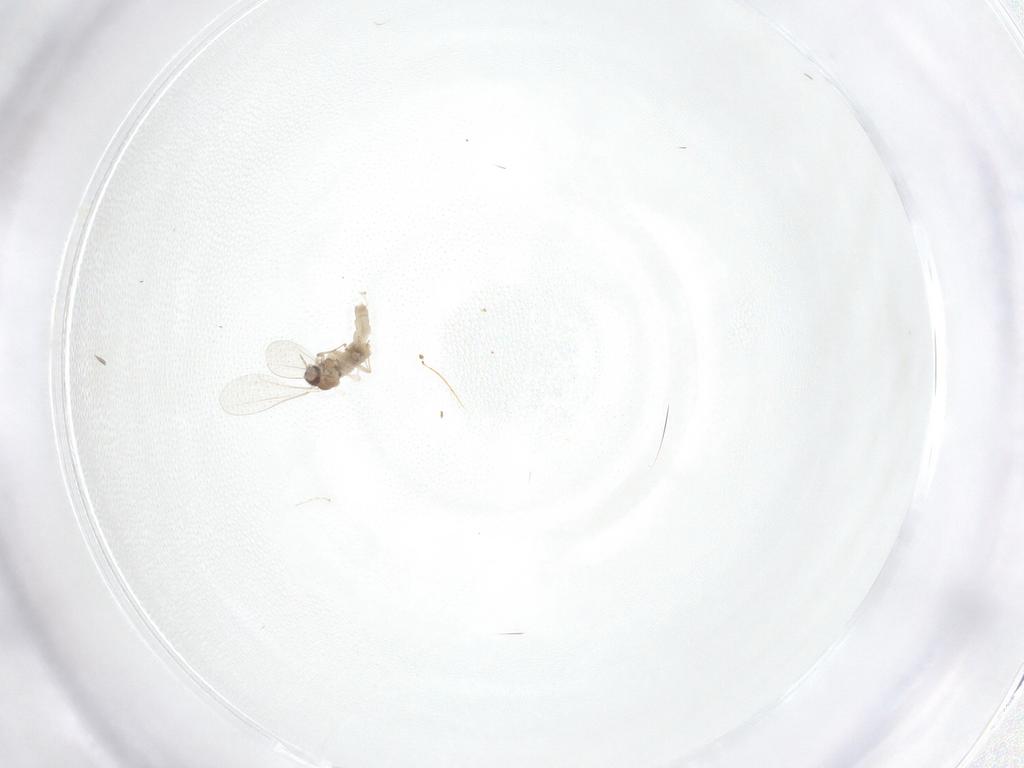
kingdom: Animalia
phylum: Arthropoda
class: Insecta
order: Diptera
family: Cecidomyiidae
